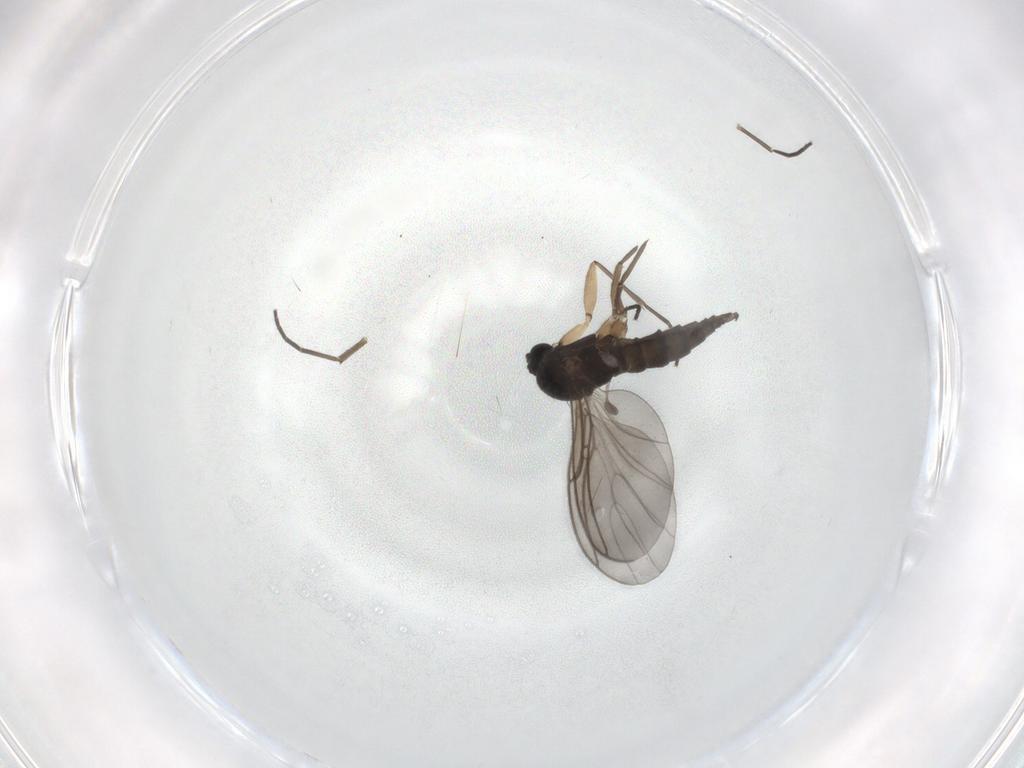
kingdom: Animalia
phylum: Arthropoda
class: Insecta
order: Diptera
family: Sciaridae
